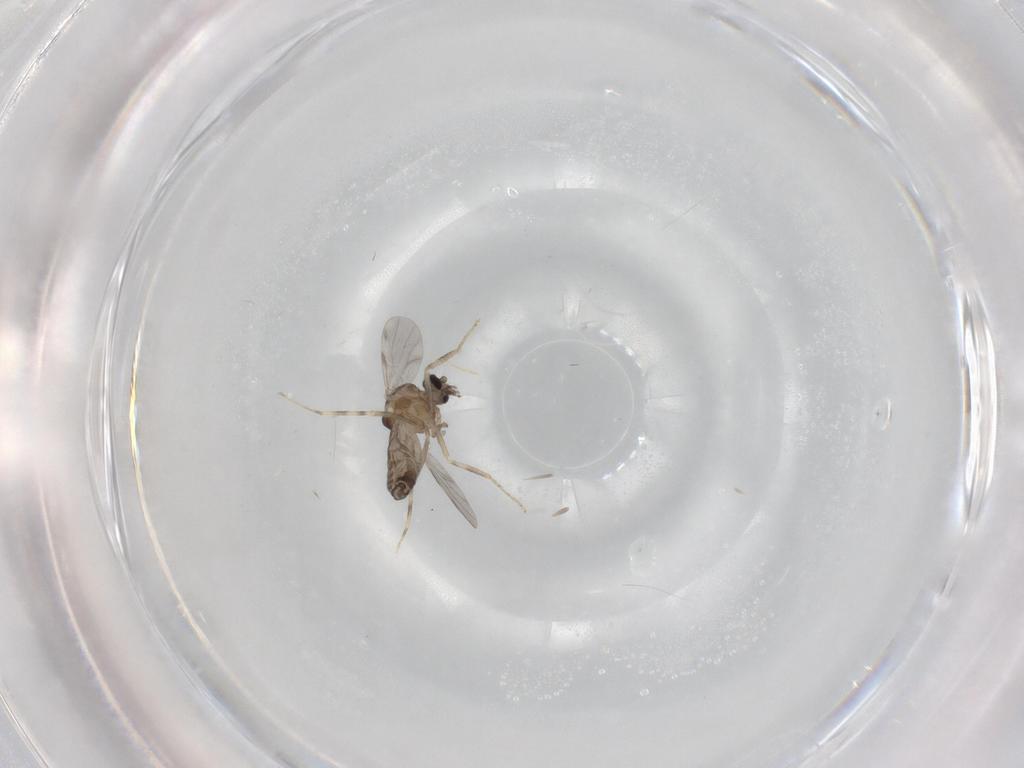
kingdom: Animalia
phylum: Arthropoda
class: Insecta
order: Diptera
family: Ceratopogonidae
